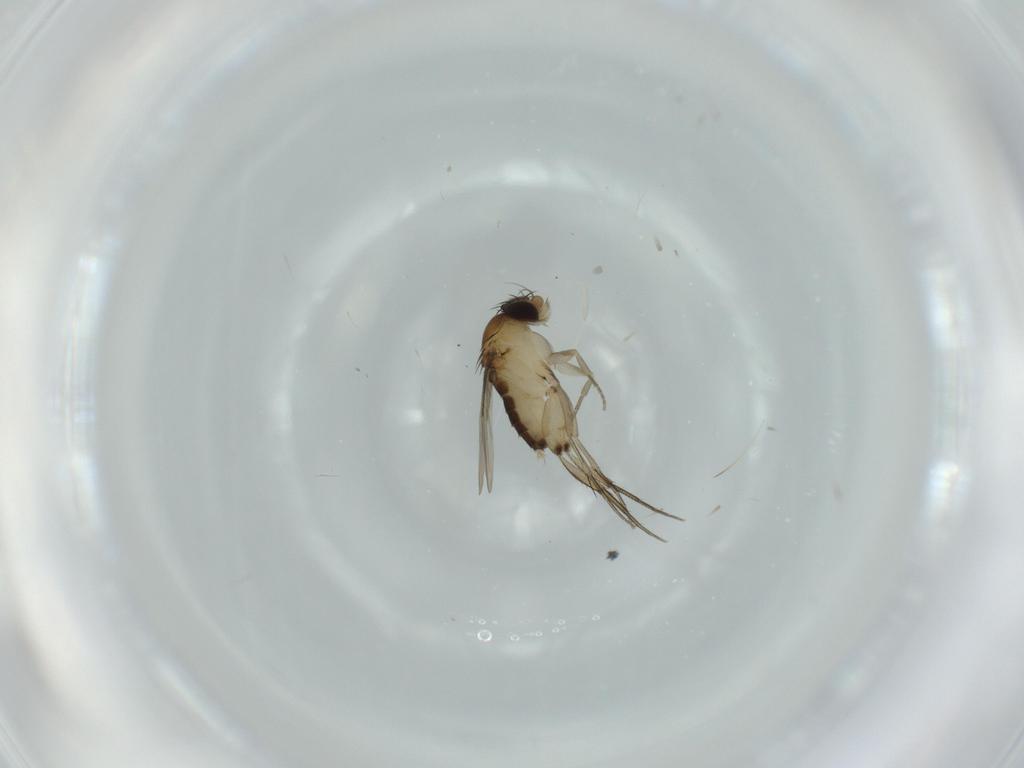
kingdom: Animalia
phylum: Arthropoda
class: Insecta
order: Diptera
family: Phoridae
